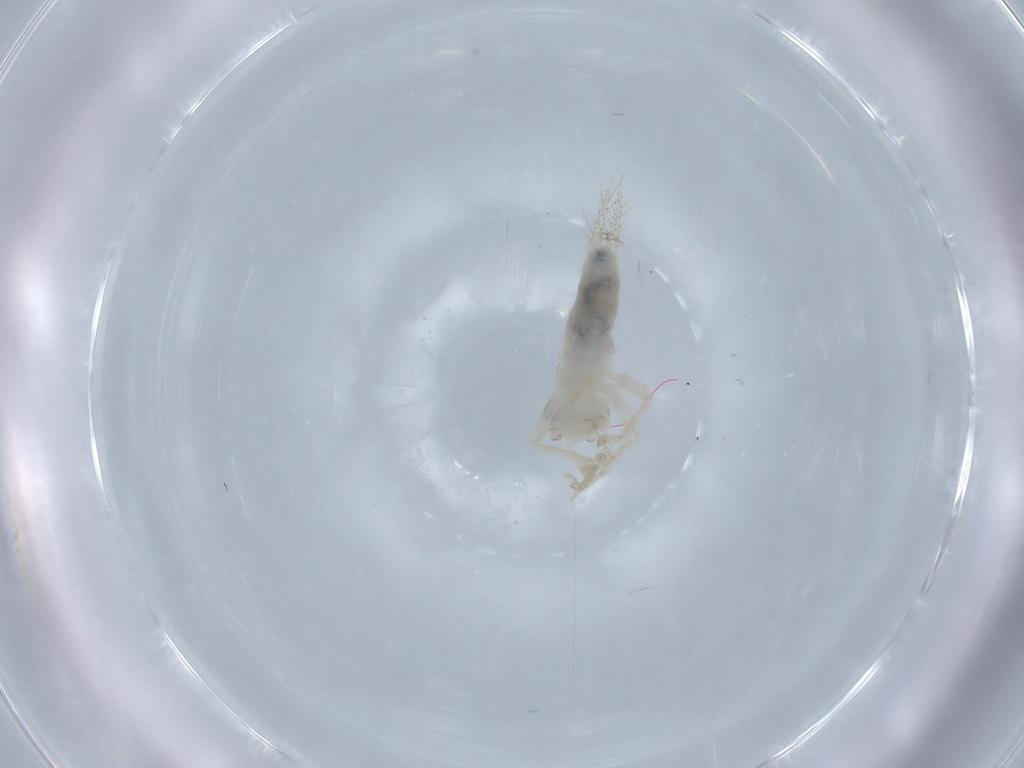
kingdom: Animalia
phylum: Arthropoda
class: Insecta
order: Orthoptera
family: Trigonidiidae
